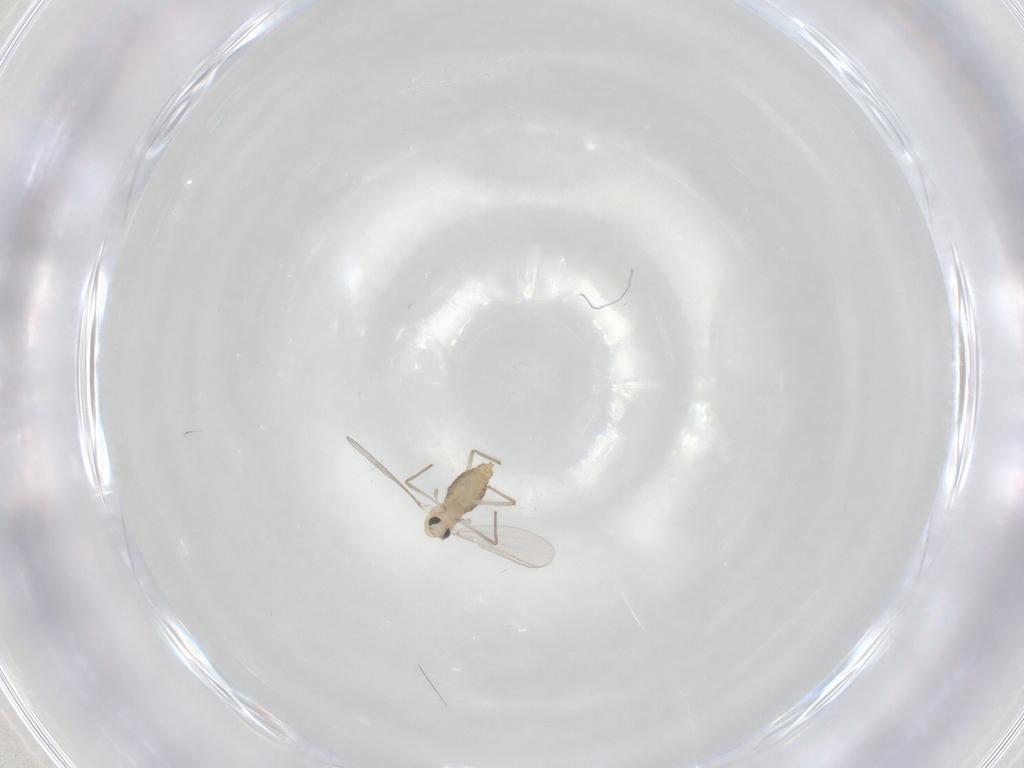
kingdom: Animalia
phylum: Arthropoda
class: Insecta
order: Diptera
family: Chironomidae
